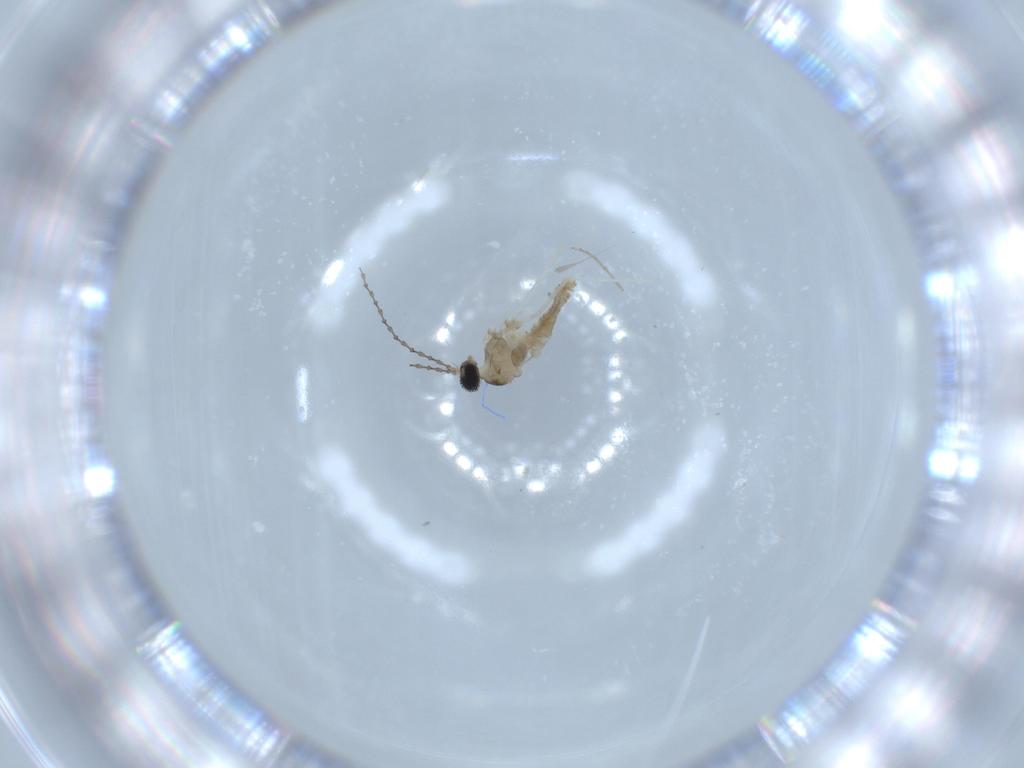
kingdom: Animalia
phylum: Arthropoda
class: Insecta
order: Diptera
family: Cecidomyiidae
